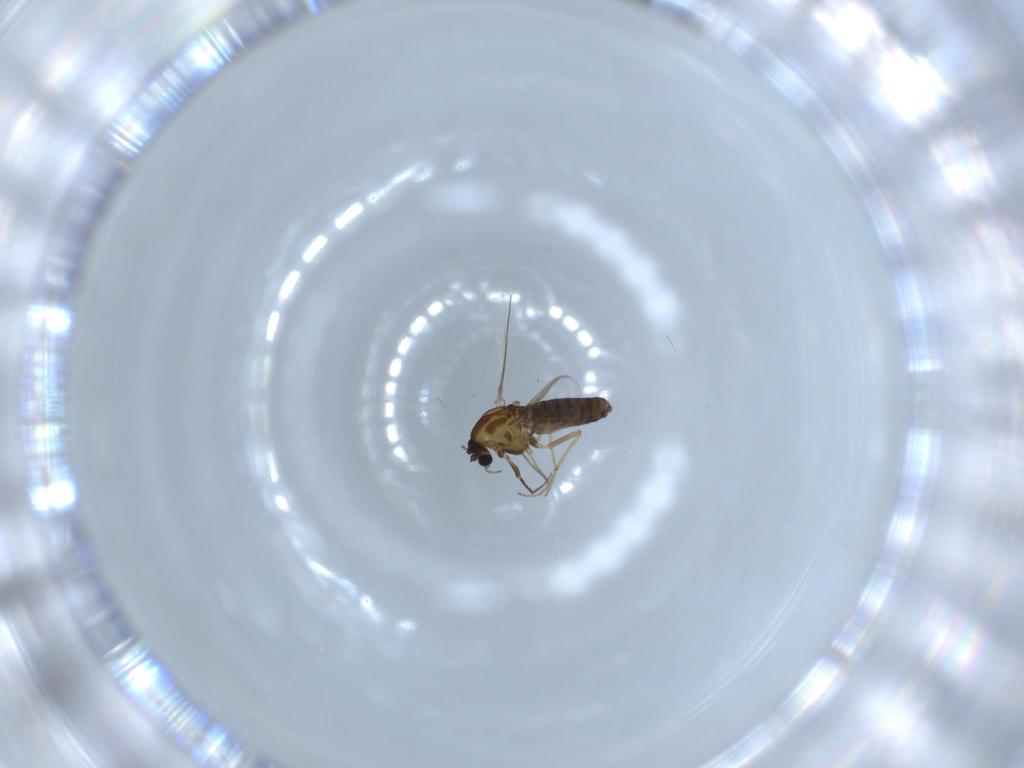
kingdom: Animalia
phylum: Arthropoda
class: Insecta
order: Diptera
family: Chironomidae
